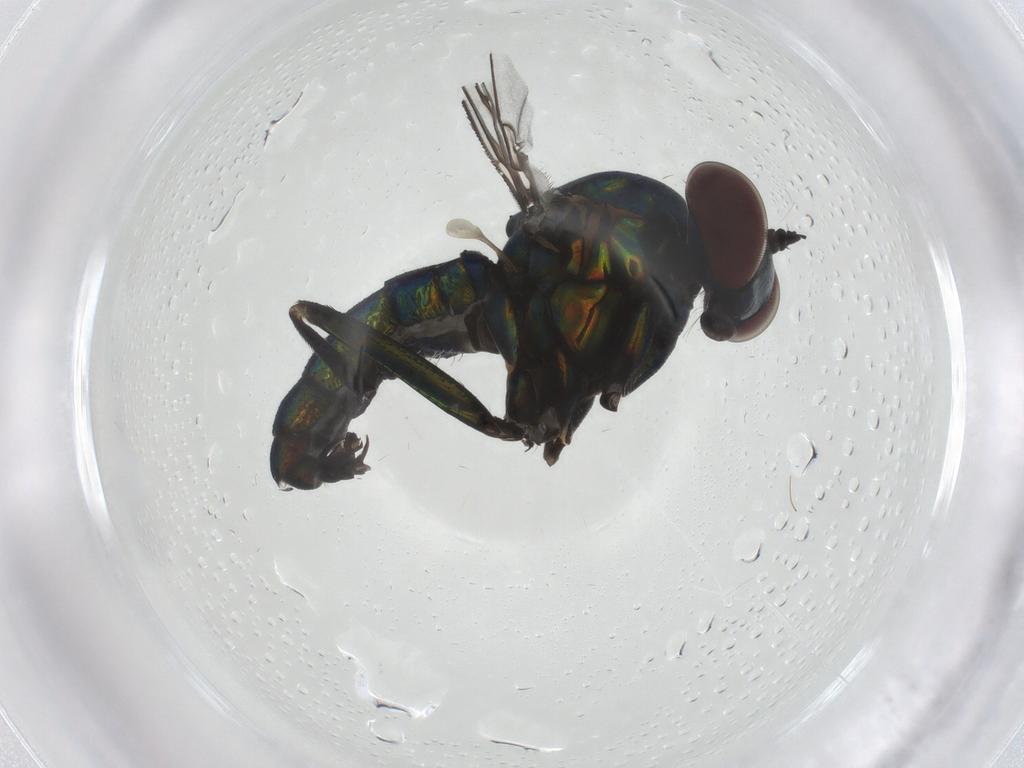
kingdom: Animalia
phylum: Arthropoda
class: Insecta
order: Diptera
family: Dolichopodidae
